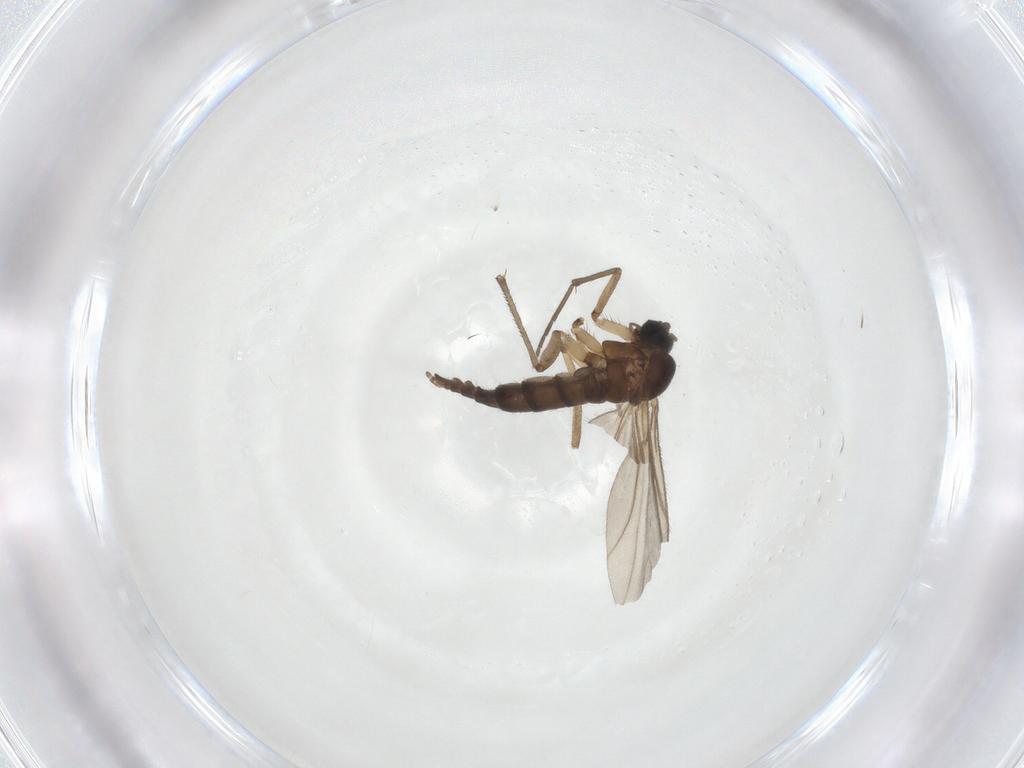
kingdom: Animalia
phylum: Arthropoda
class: Insecta
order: Diptera
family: Sciaridae
